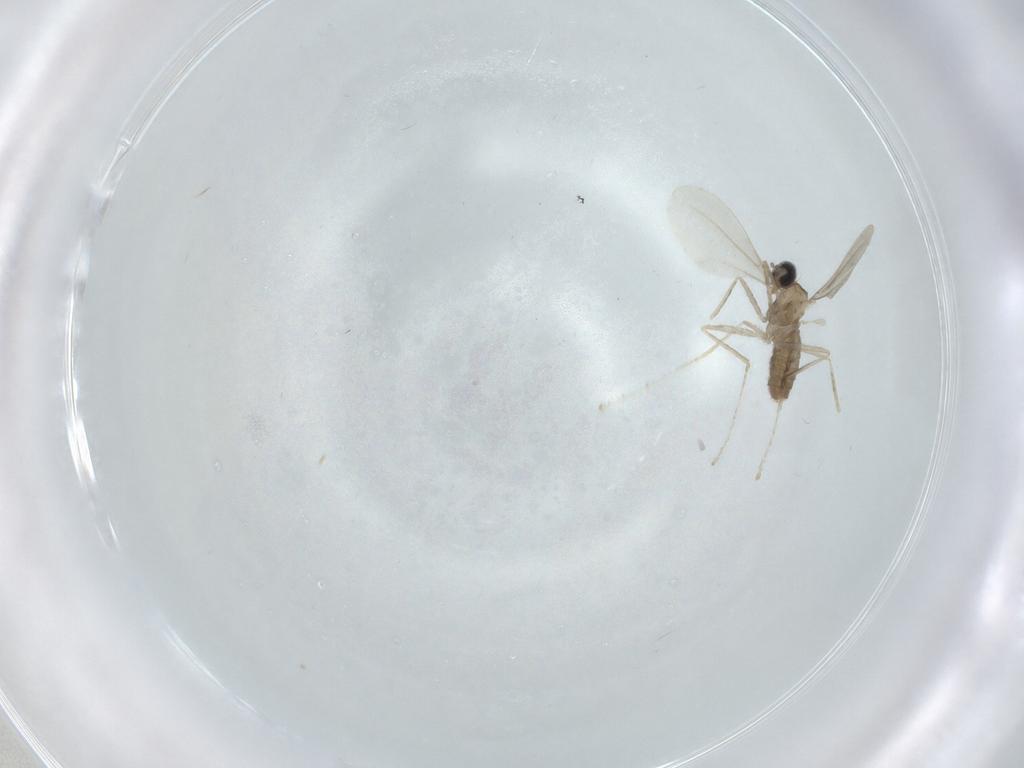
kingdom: Animalia
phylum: Arthropoda
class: Insecta
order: Diptera
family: Cecidomyiidae
